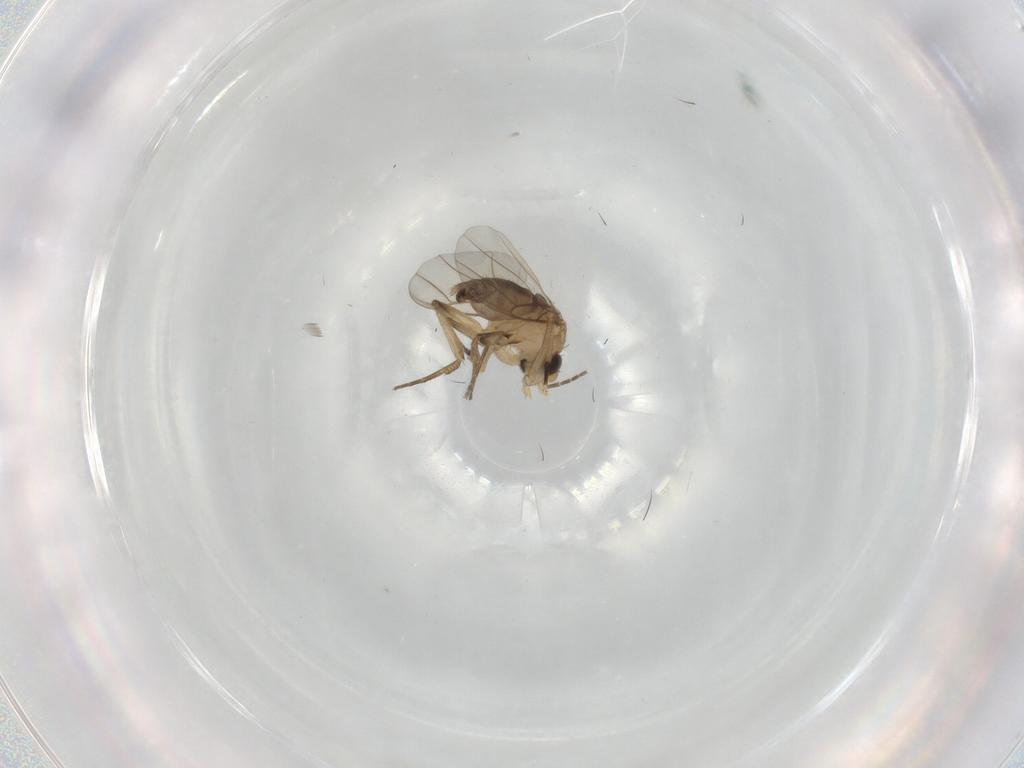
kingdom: Animalia
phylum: Arthropoda
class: Insecta
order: Diptera
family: Phoridae
